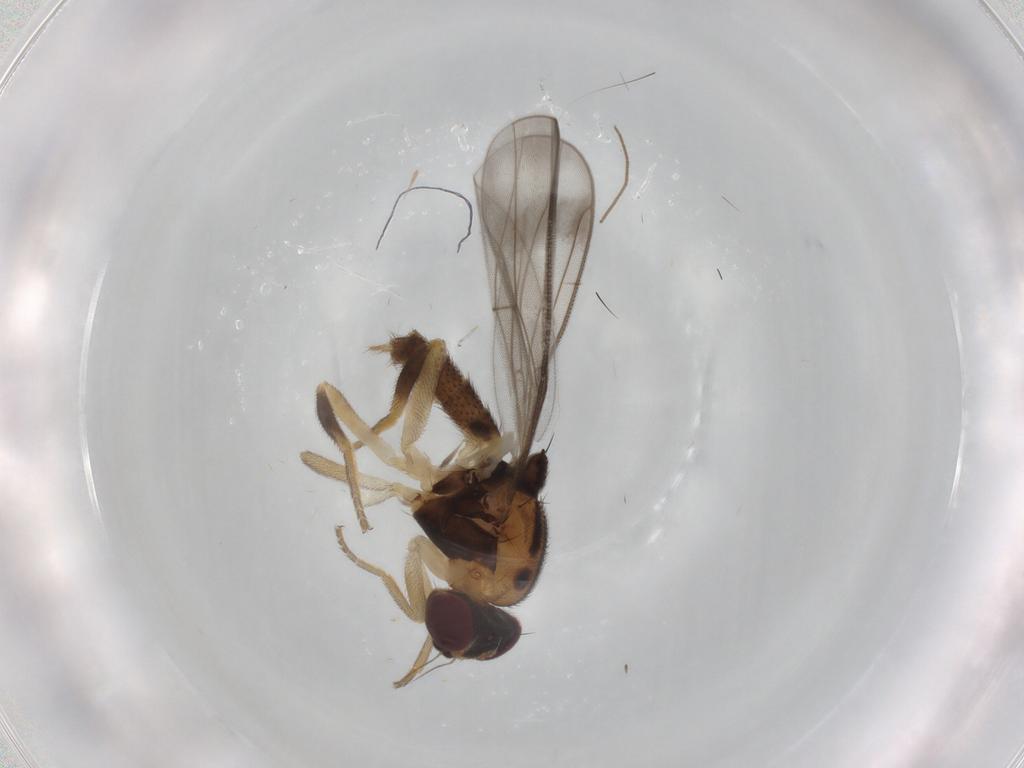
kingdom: Animalia
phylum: Arthropoda
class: Insecta
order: Diptera
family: Chloropidae
